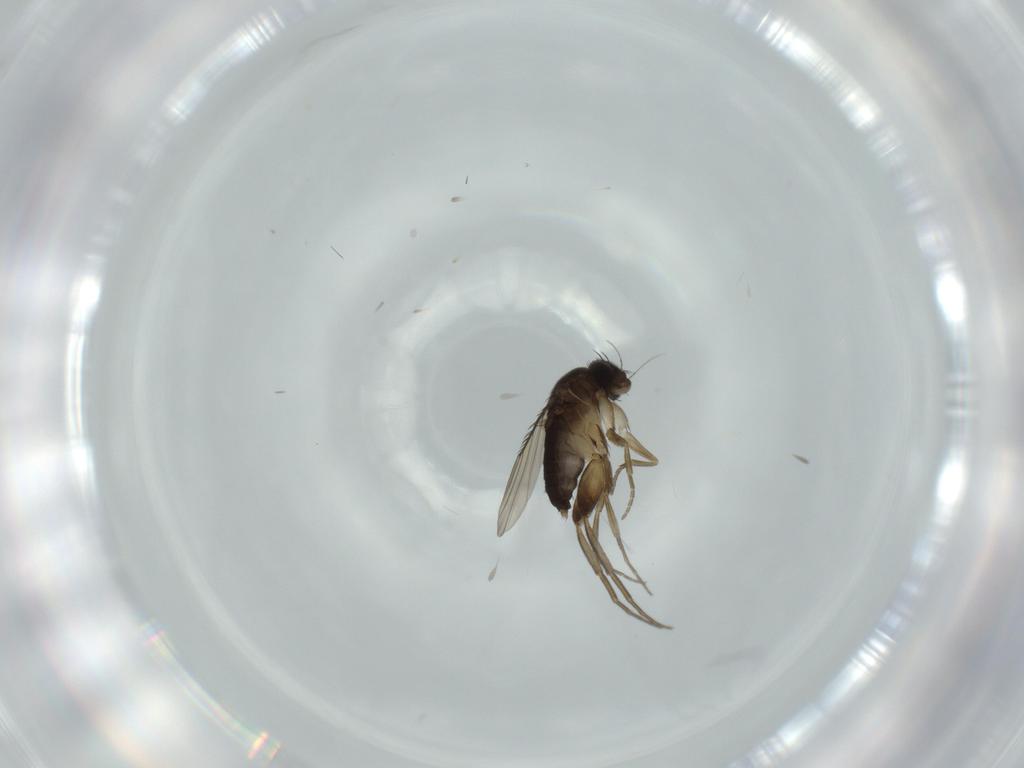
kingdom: Animalia
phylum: Arthropoda
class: Insecta
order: Diptera
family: Phoridae
